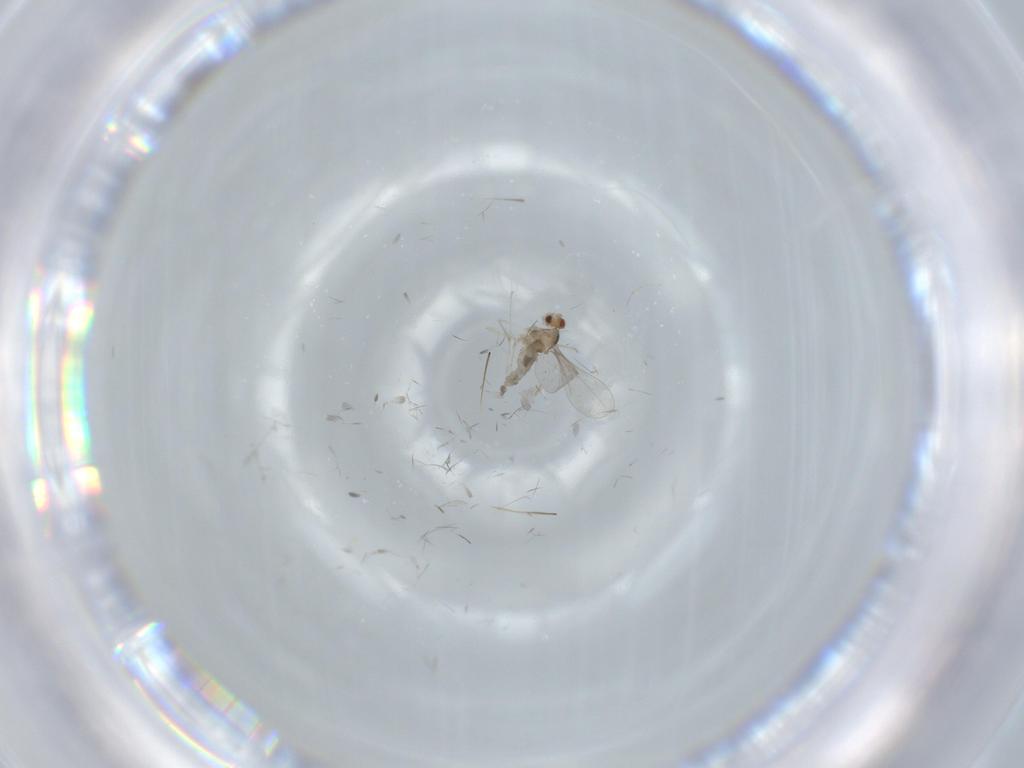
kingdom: Animalia
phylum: Arthropoda
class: Insecta
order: Diptera
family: Cecidomyiidae
